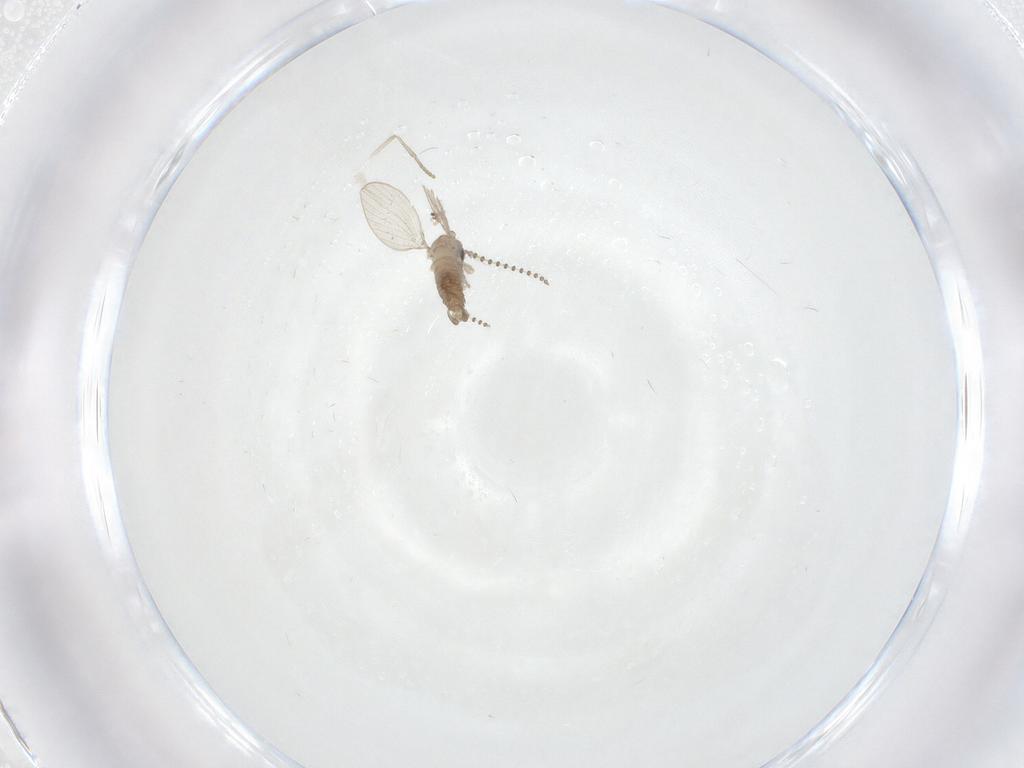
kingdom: Animalia
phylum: Arthropoda
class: Insecta
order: Diptera
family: Psychodidae
